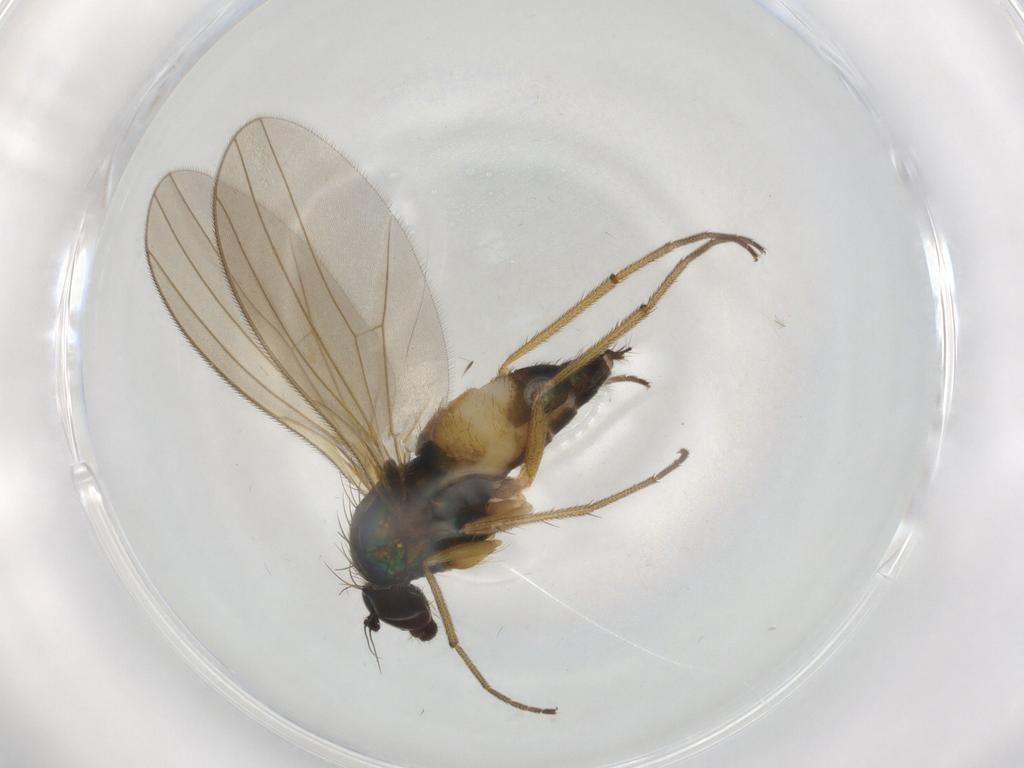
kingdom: Animalia
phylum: Arthropoda
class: Insecta
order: Diptera
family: Dolichopodidae
